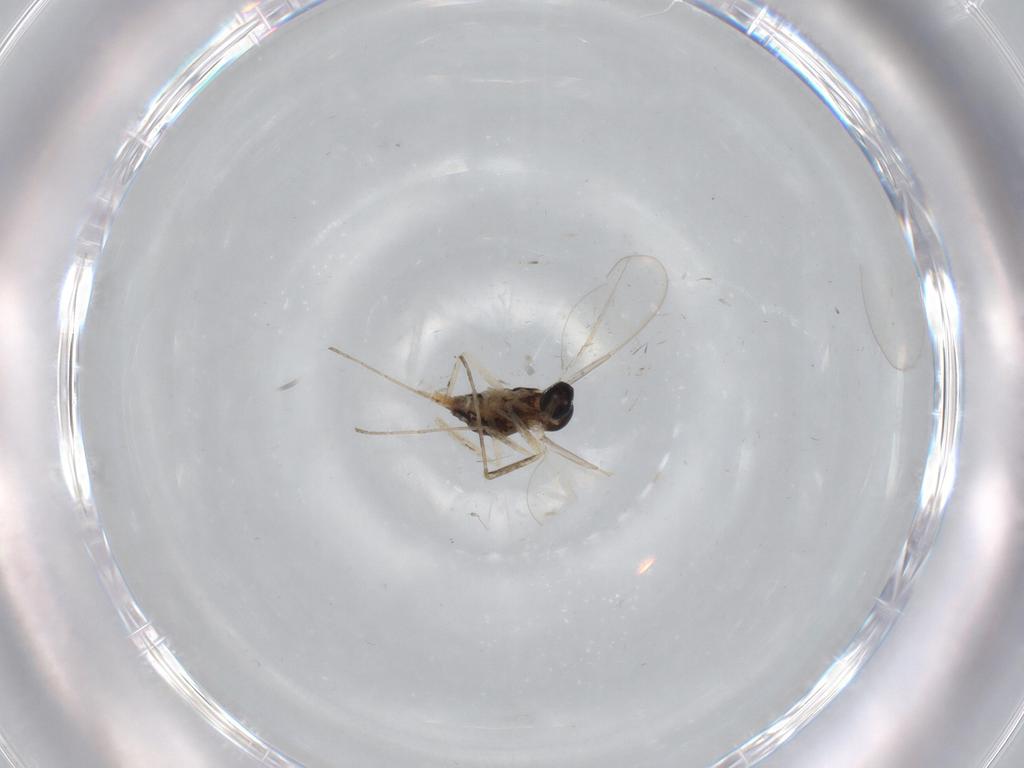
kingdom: Animalia
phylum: Arthropoda
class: Insecta
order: Diptera
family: Cecidomyiidae
